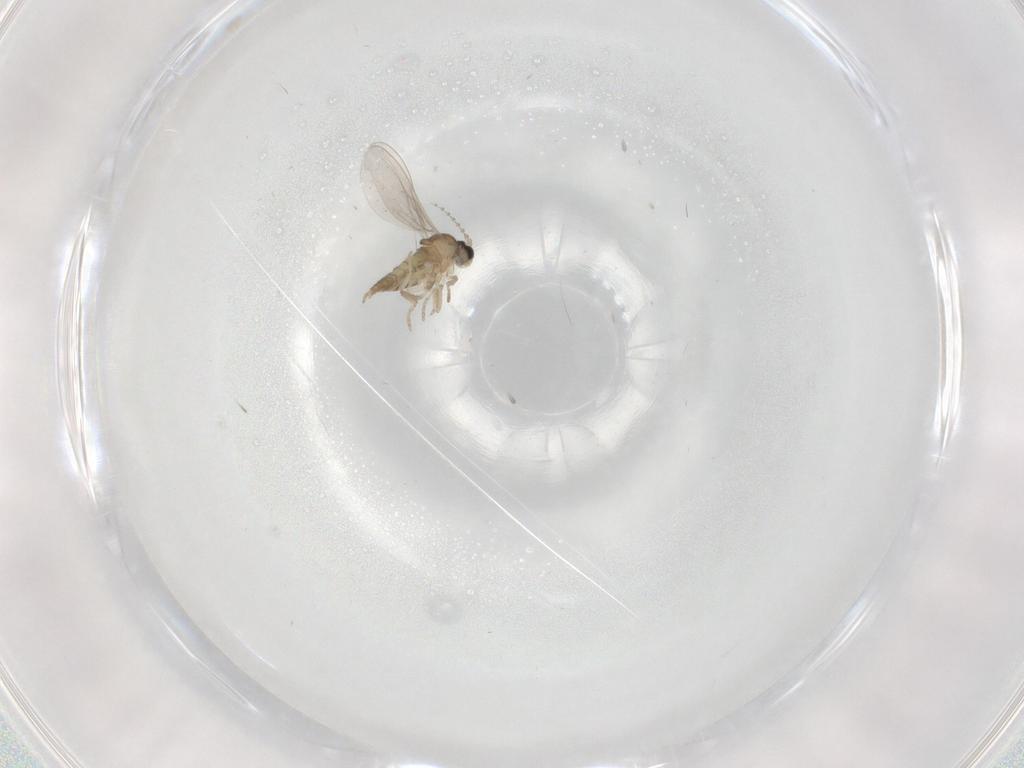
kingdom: Animalia
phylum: Arthropoda
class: Insecta
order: Diptera
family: Cecidomyiidae
